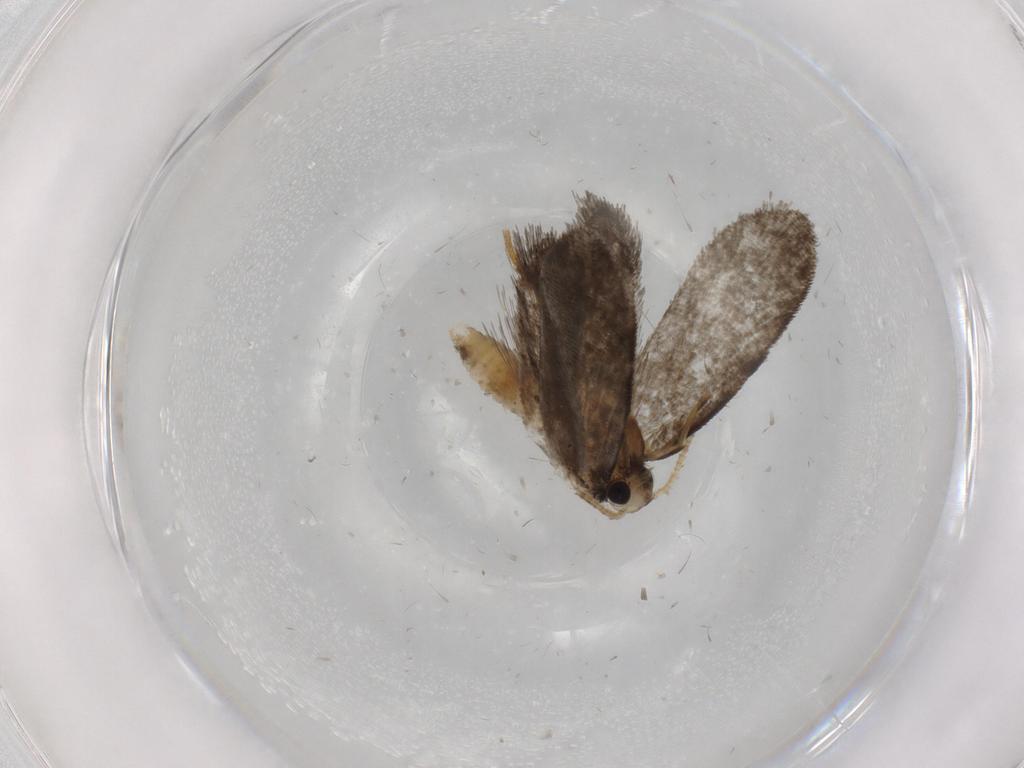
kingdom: Animalia
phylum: Arthropoda
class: Insecta
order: Lepidoptera
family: Psychidae
